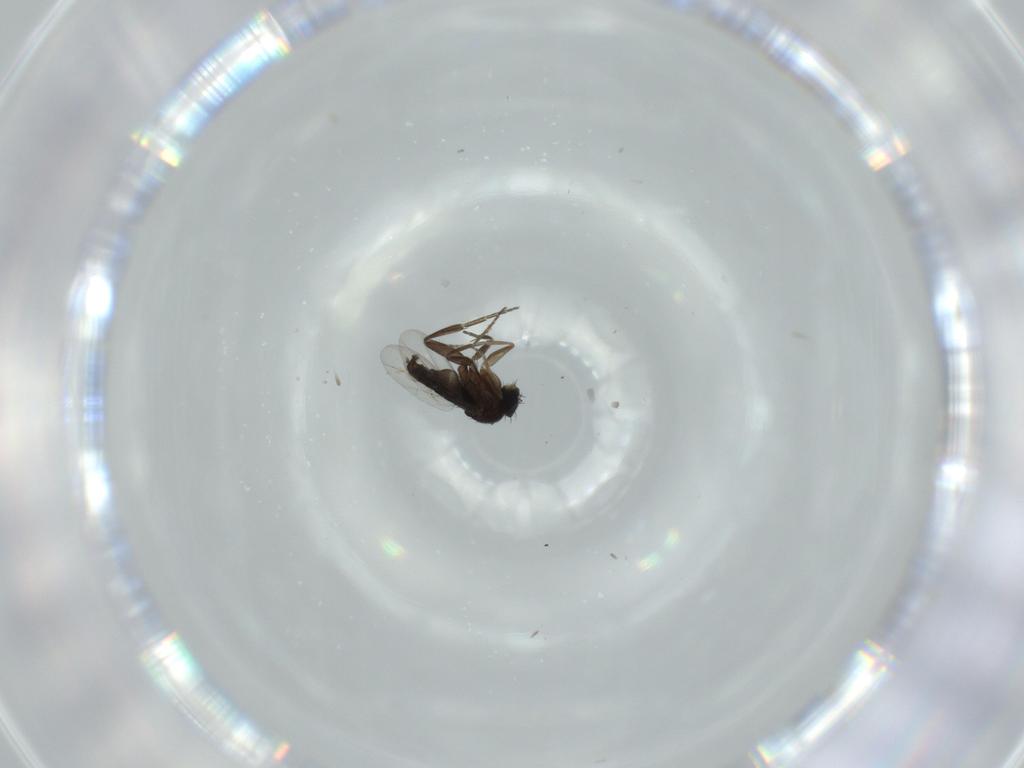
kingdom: Animalia
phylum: Arthropoda
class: Insecta
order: Diptera
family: Phoridae
